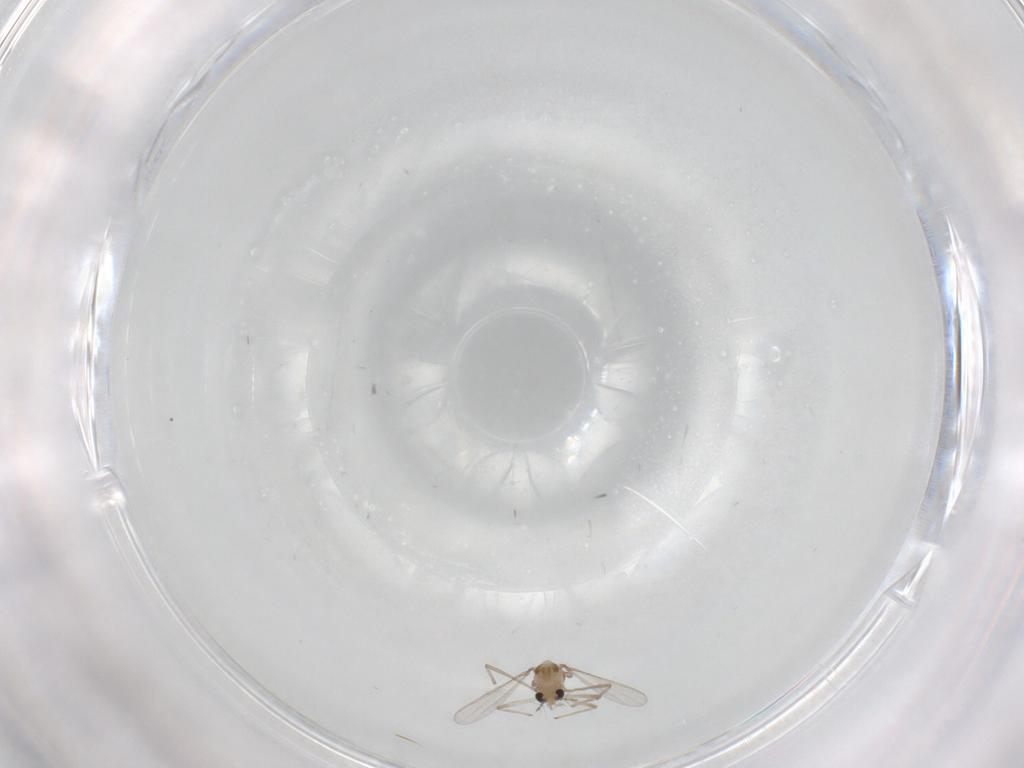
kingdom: Animalia
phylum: Arthropoda
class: Insecta
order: Diptera
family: Chironomidae
